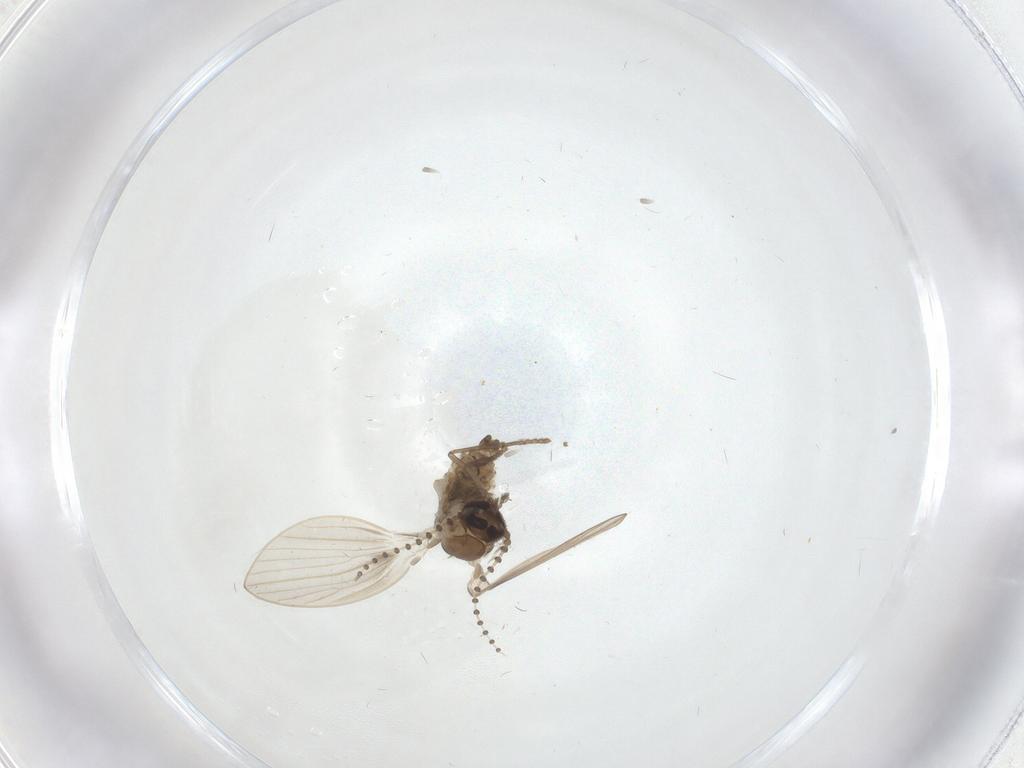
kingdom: Animalia
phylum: Arthropoda
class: Insecta
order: Diptera
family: Psychodidae
